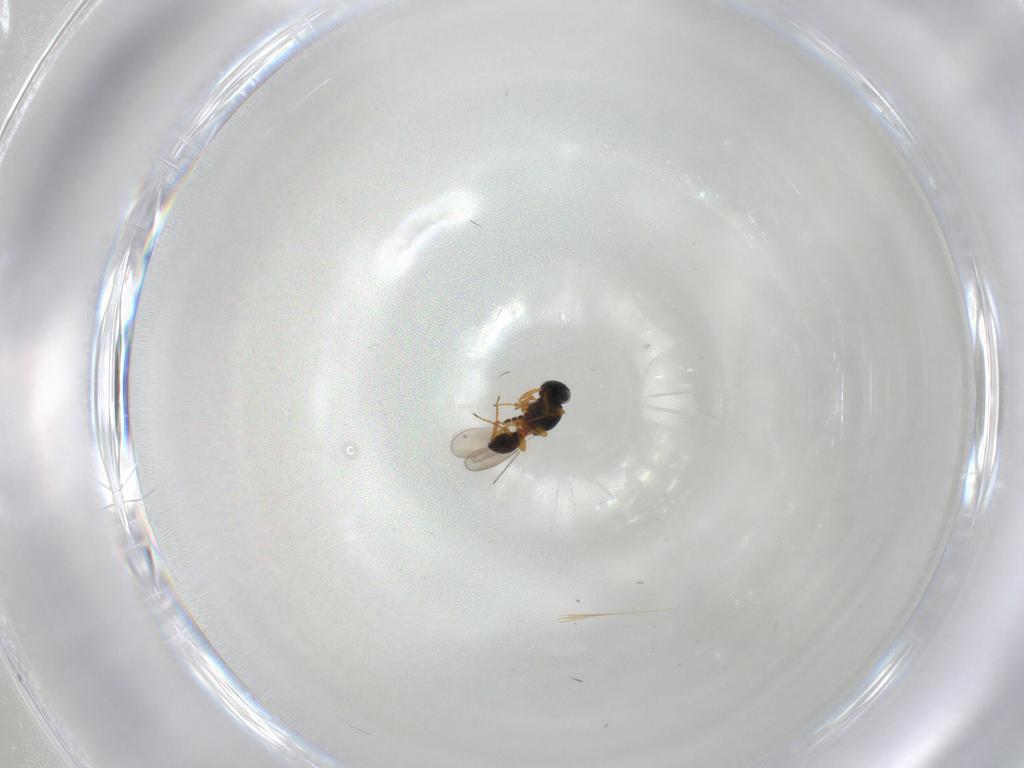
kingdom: Animalia
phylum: Arthropoda
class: Insecta
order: Hymenoptera
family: Platygastridae
